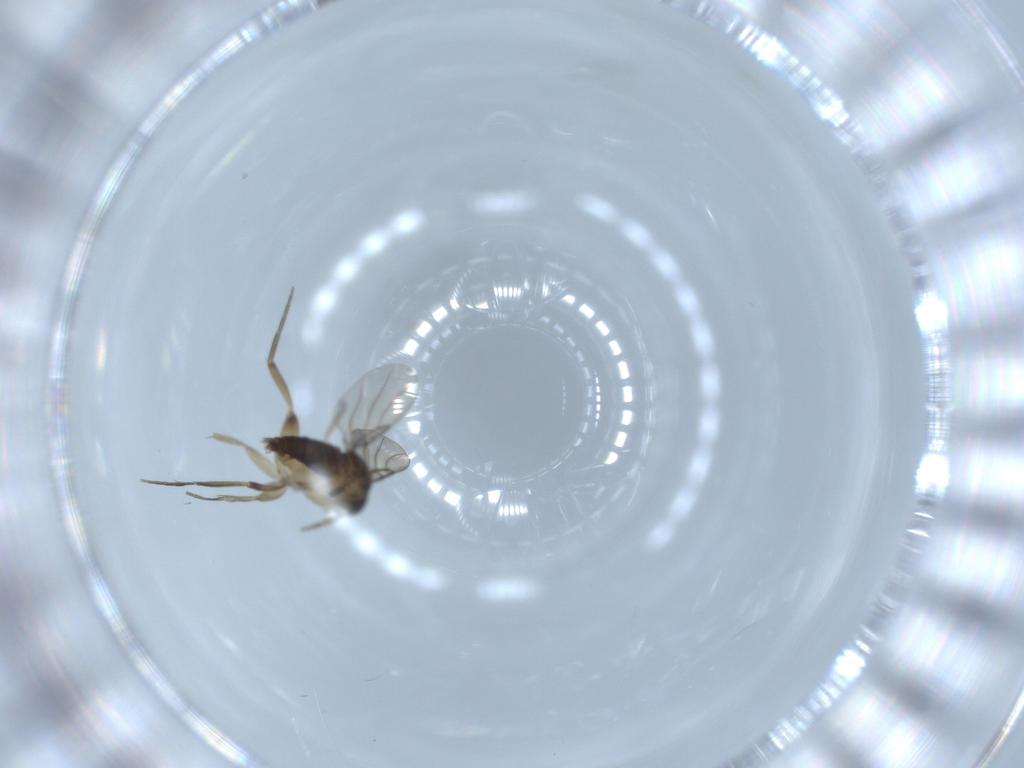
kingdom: Animalia
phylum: Arthropoda
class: Insecta
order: Diptera
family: Phoridae
